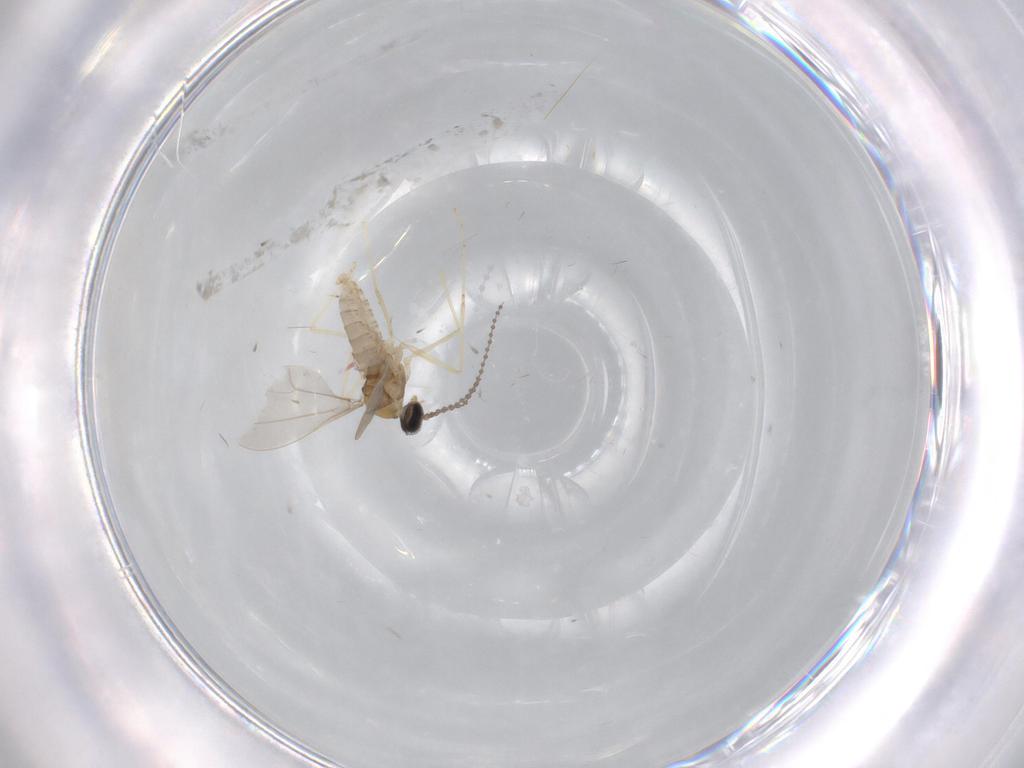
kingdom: Animalia
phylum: Arthropoda
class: Insecta
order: Diptera
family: Cecidomyiidae
